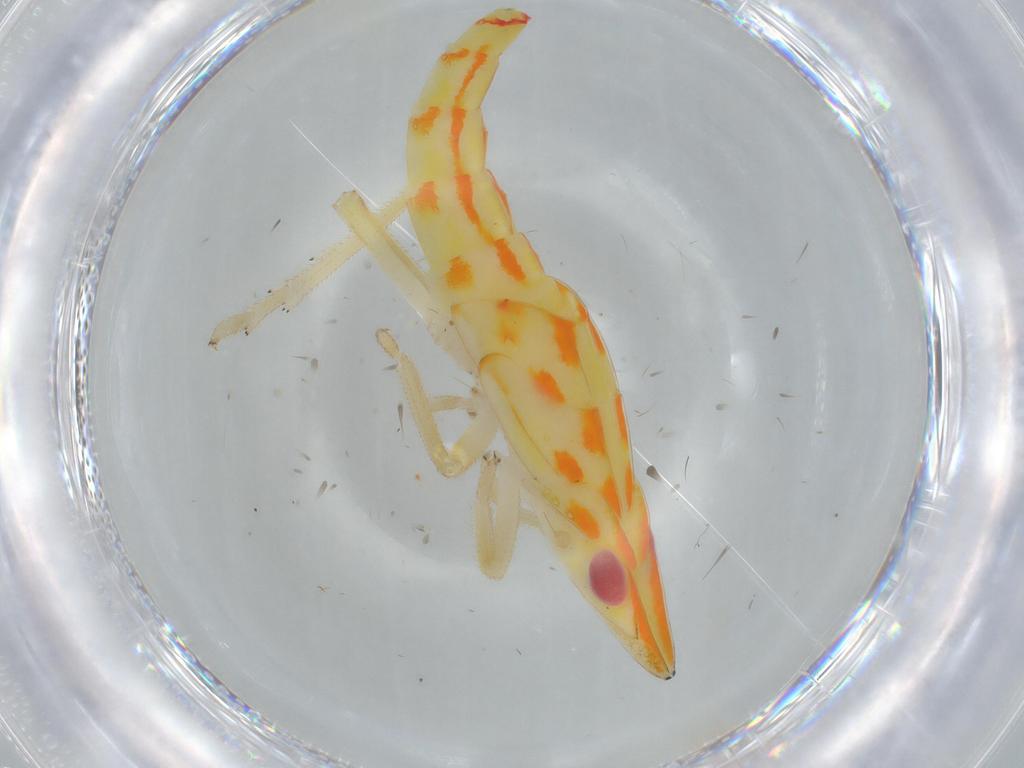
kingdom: Animalia
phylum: Arthropoda
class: Insecta
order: Hemiptera
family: Tropiduchidae
